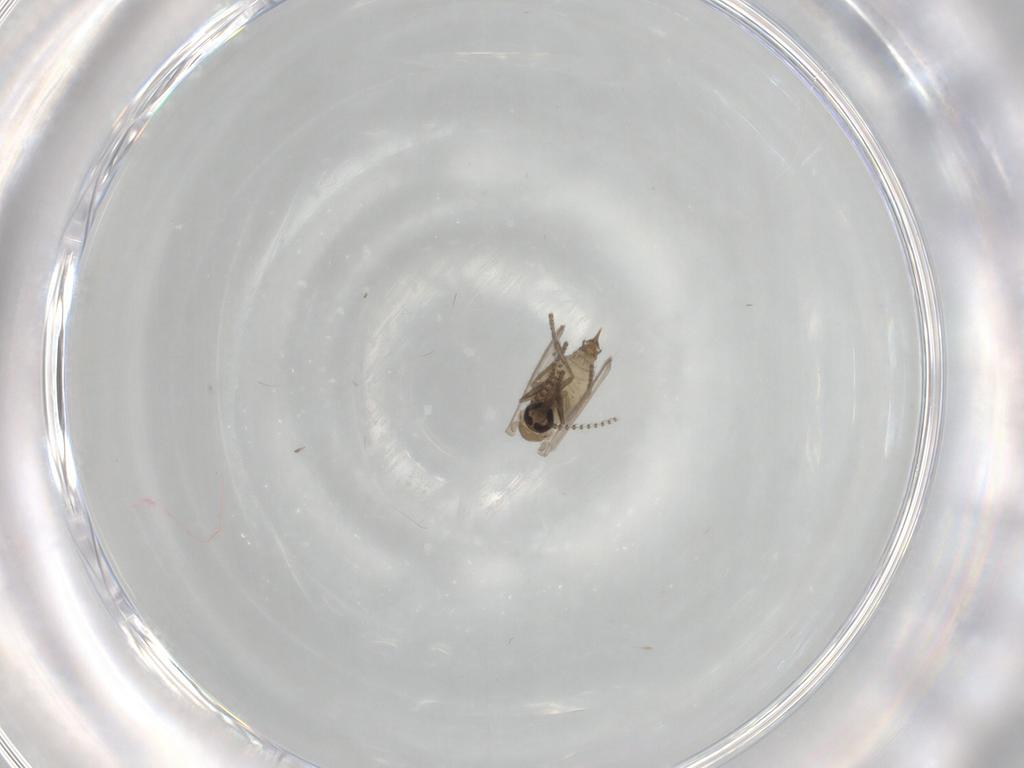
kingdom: Animalia
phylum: Arthropoda
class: Insecta
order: Diptera
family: Psychodidae
